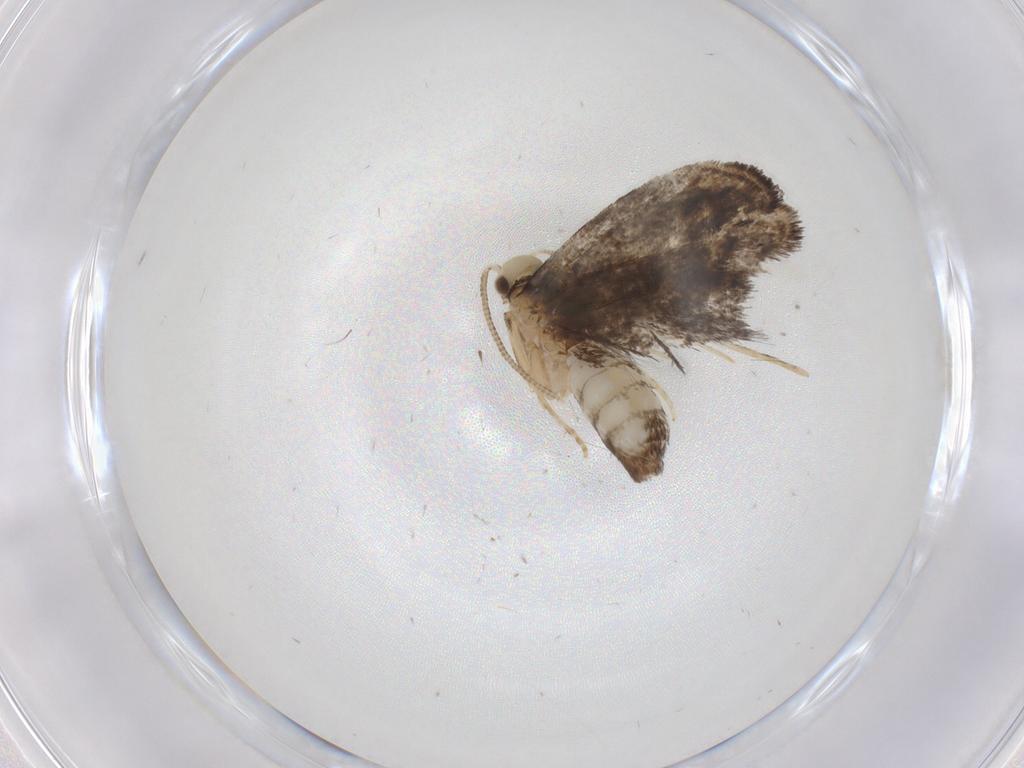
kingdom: Animalia
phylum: Arthropoda
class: Insecta
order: Lepidoptera
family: Dryadaulidae
